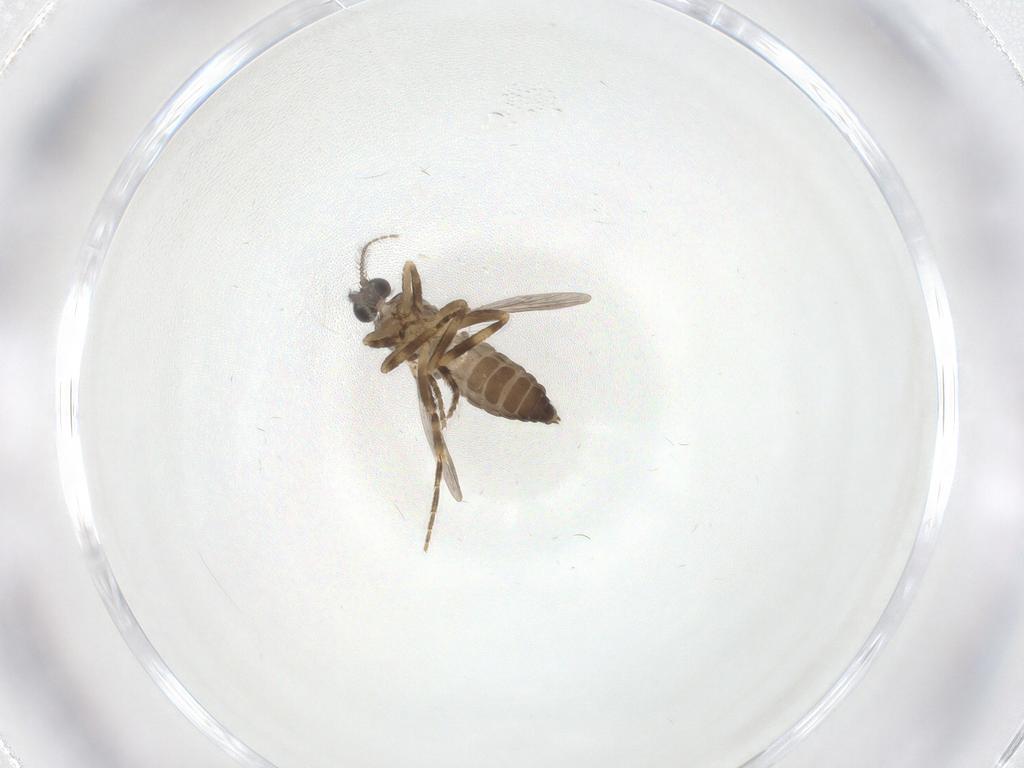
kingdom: Animalia
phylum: Arthropoda
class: Insecta
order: Diptera
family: Ceratopogonidae
